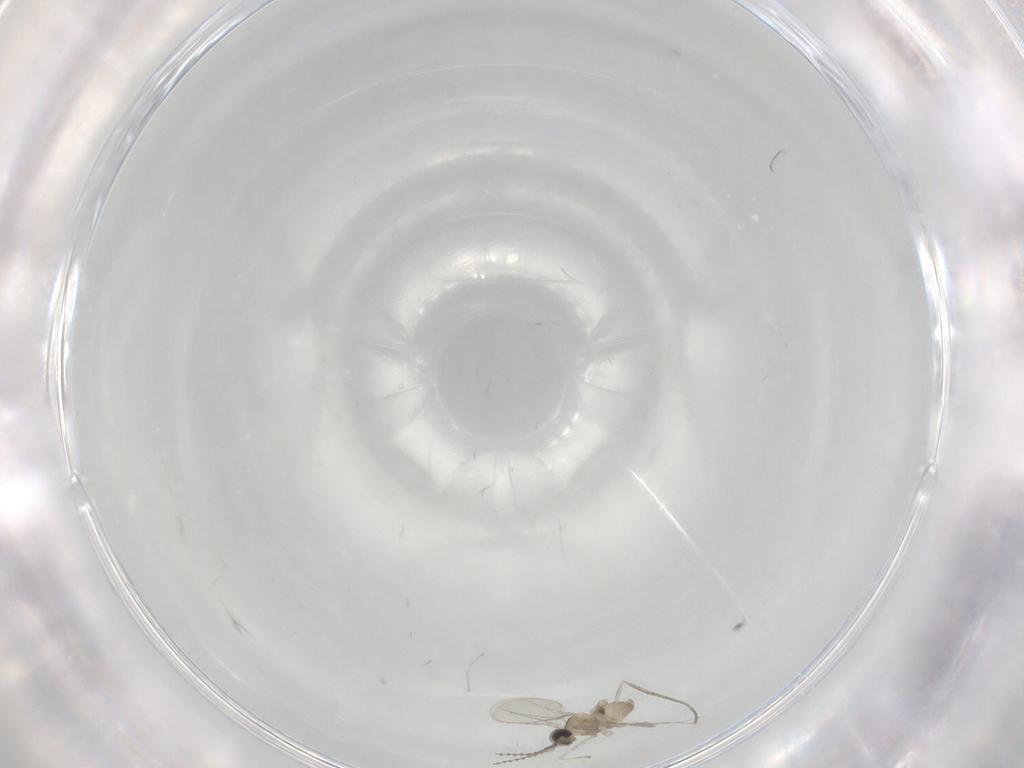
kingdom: Animalia
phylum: Arthropoda
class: Insecta
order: Diptera
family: Cecidomyiidae
